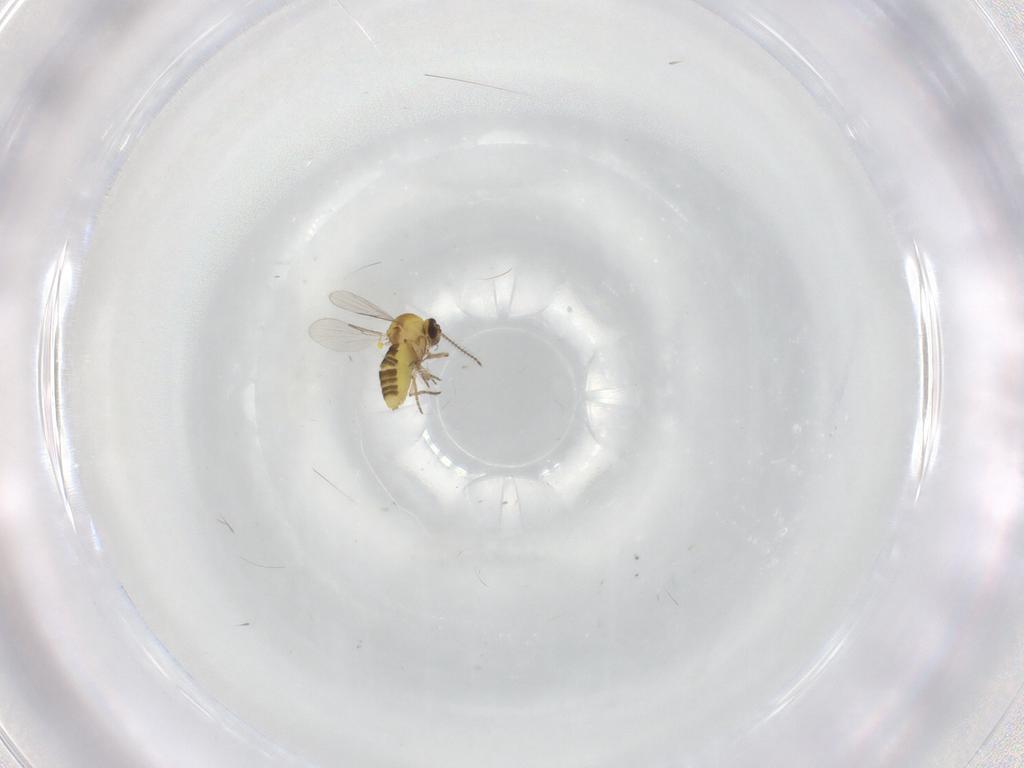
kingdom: Animalia
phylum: Arthropoda
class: Insecta
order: Diptera
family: Ceratopogonidae
